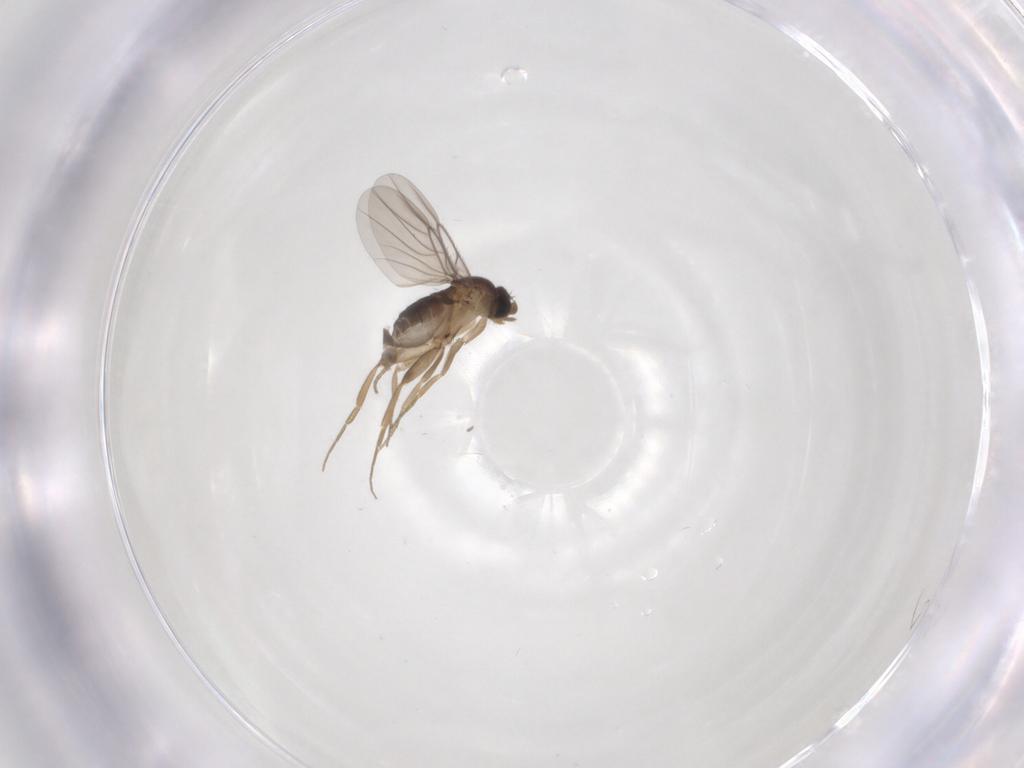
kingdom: Animalia
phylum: Arthropoda
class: Insecta
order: Diptera
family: Phoridae
